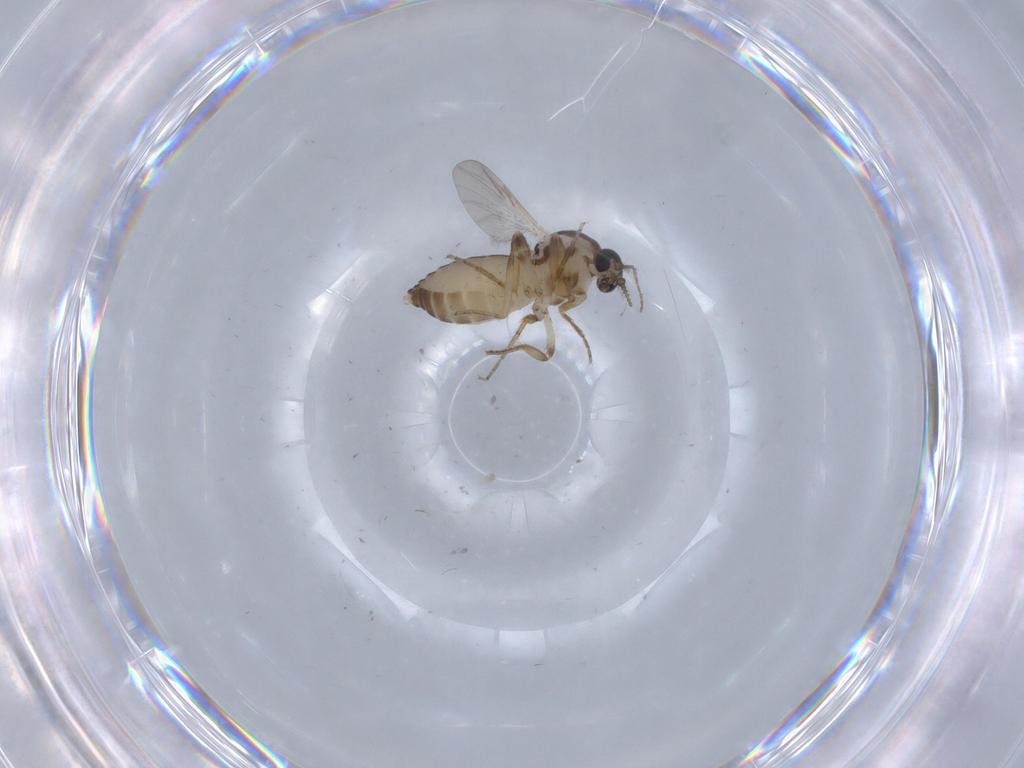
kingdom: Animalia
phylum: Arthropoda
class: Insecta
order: Diptera
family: Ceratopogonidae
